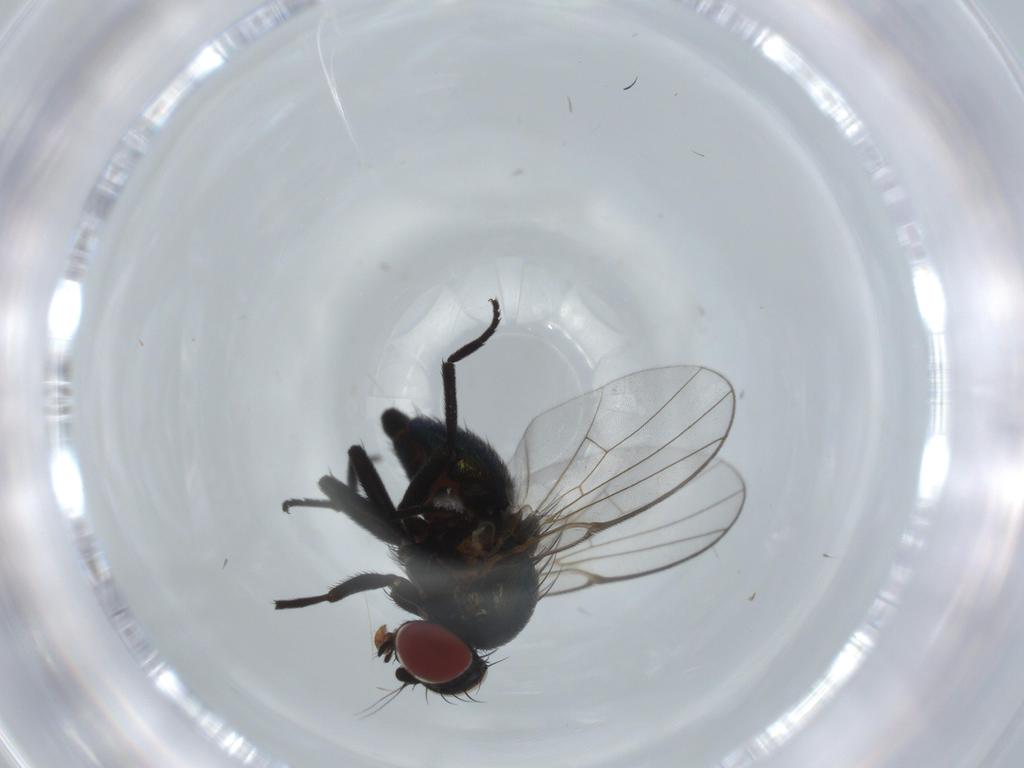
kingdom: Animalia
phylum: Arthropoda
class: Insecta
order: Diptera
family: Agromyzidae
